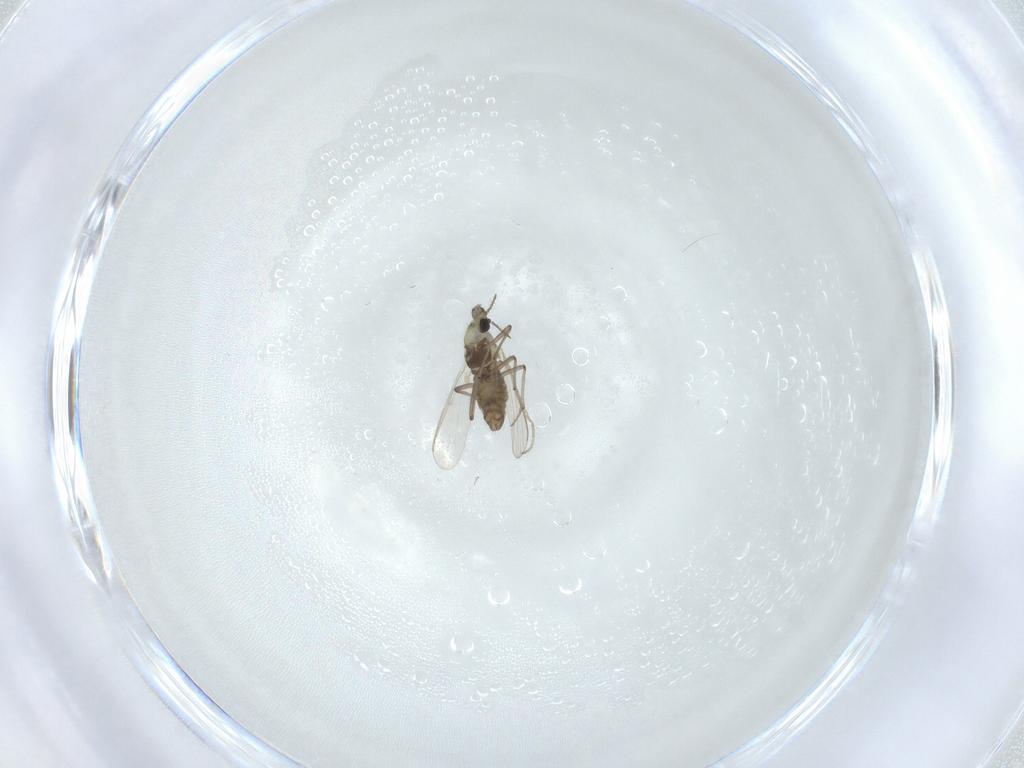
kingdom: Animalia
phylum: Arthropoda
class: Insecta
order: Diptera
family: Chironomidae
